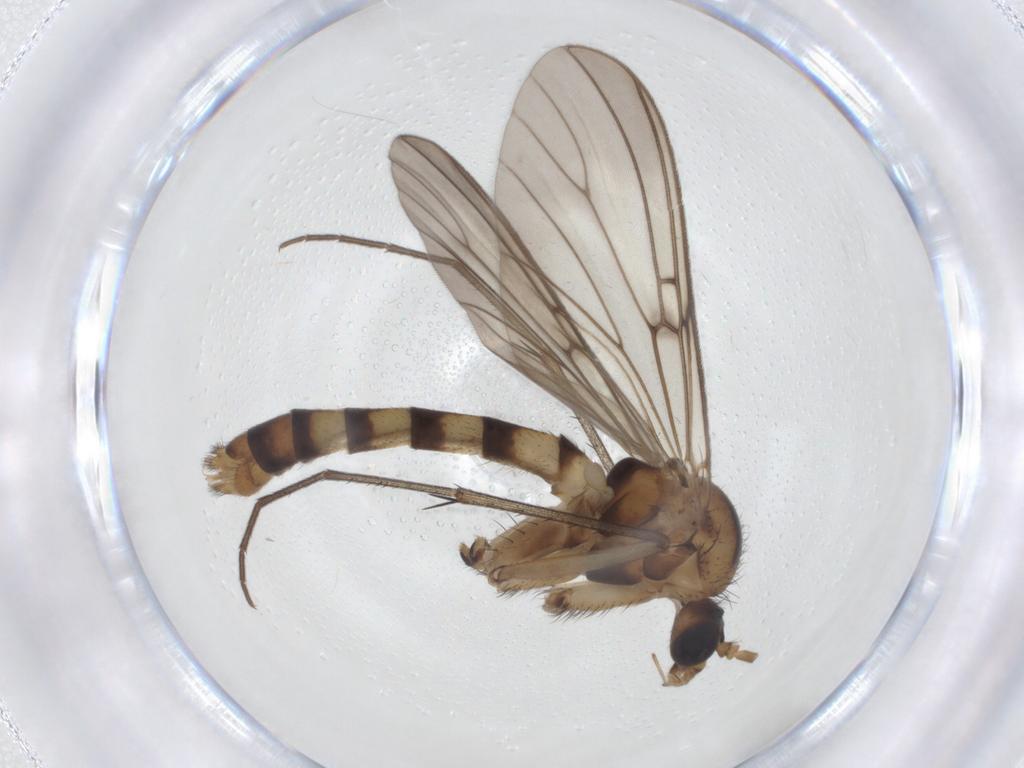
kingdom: Animalia
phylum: Arthropoda
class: Insecta
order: Diptera
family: Mycetophilidae
